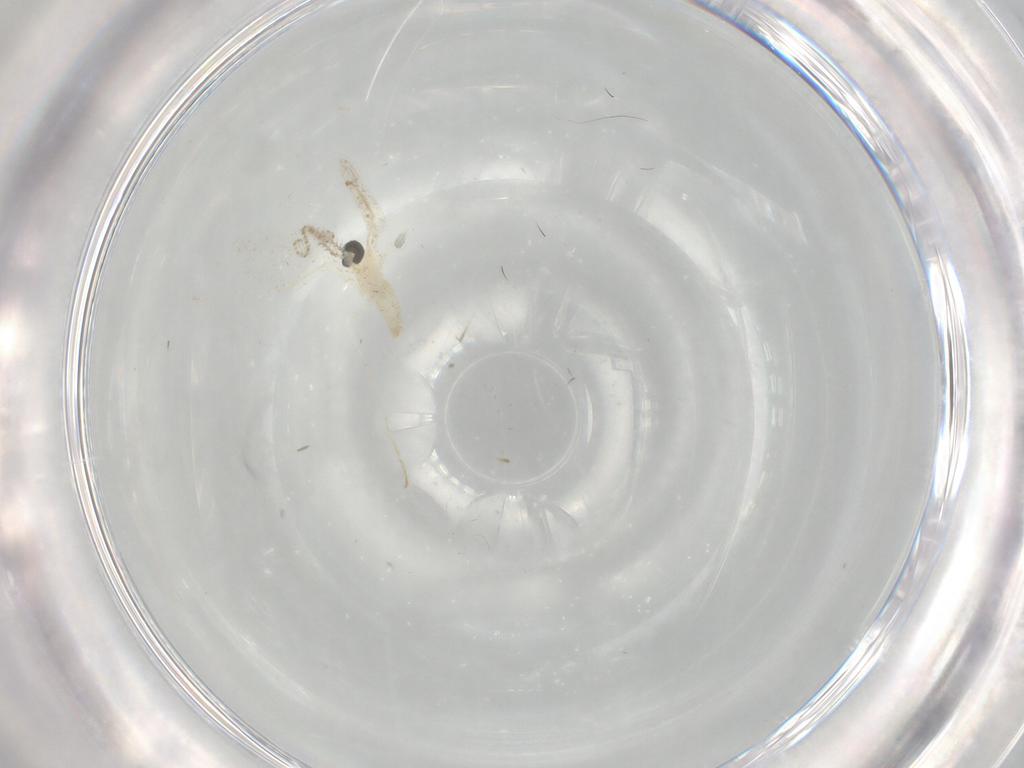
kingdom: Animalia
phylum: Arthropoda
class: Insecta
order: Diptera
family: Cecidomyiidae
